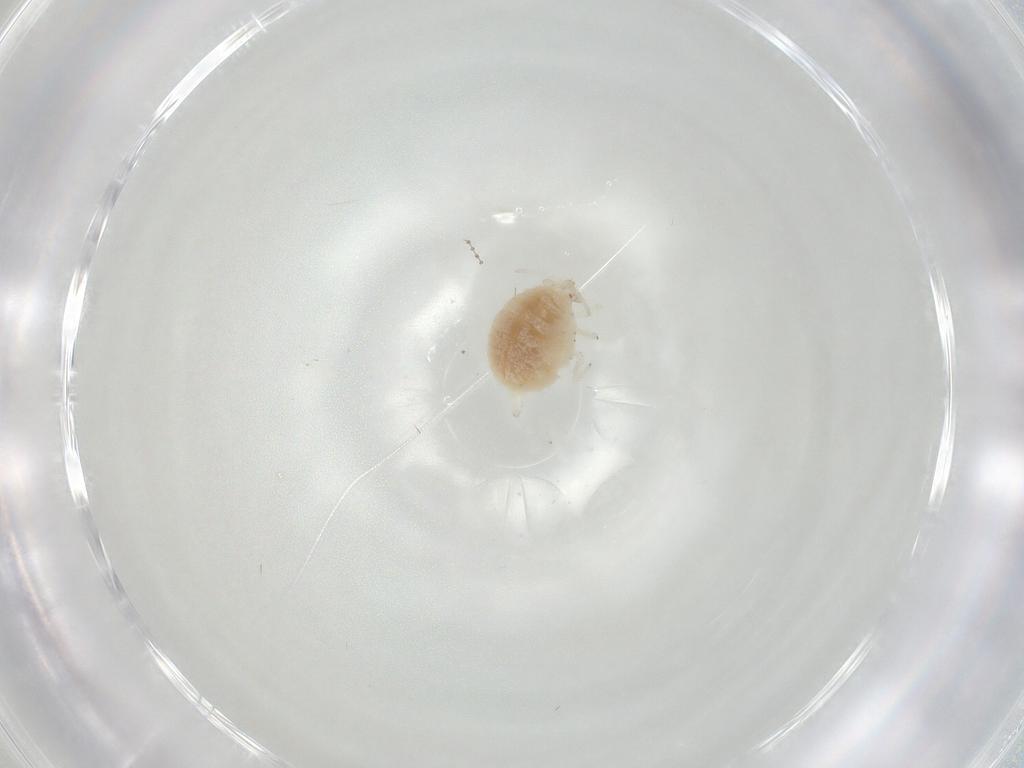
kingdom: Animalia
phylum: Arthropoda
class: Insecta
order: Neuroptera
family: Coniopterygidae
